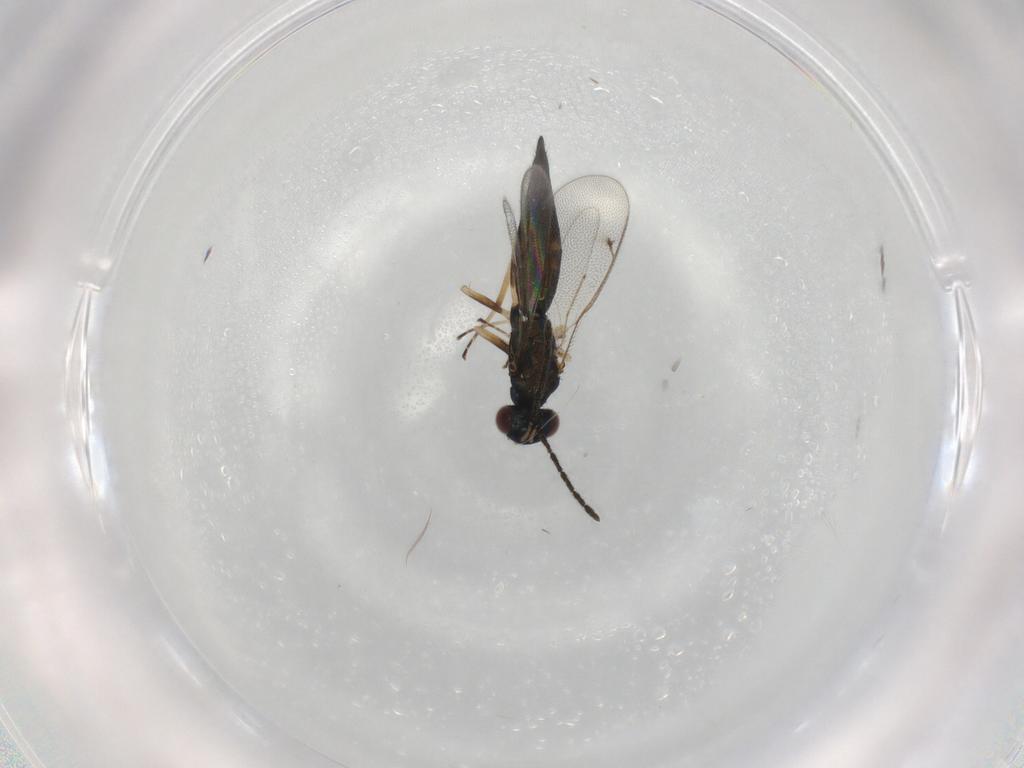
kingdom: Animalia
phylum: Arthropoda
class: Insecta
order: Hymenoptera
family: Eulophidae
